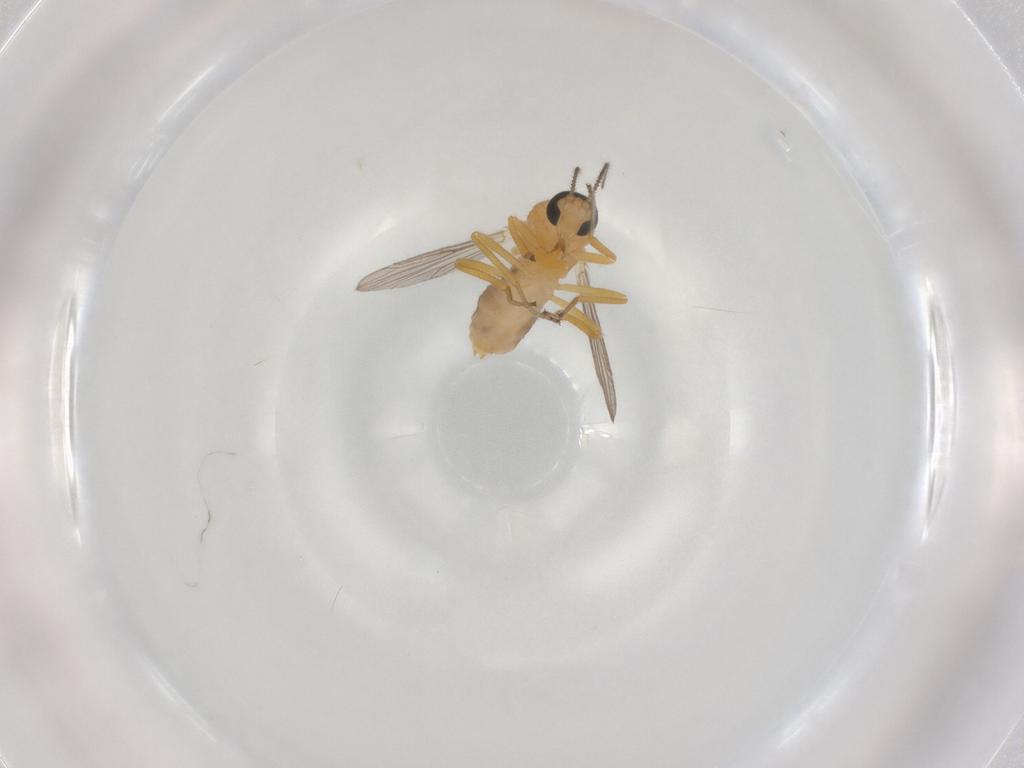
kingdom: Animalia
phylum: Arthropoda
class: Insecta
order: Diptera
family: Ceratopogonidae
